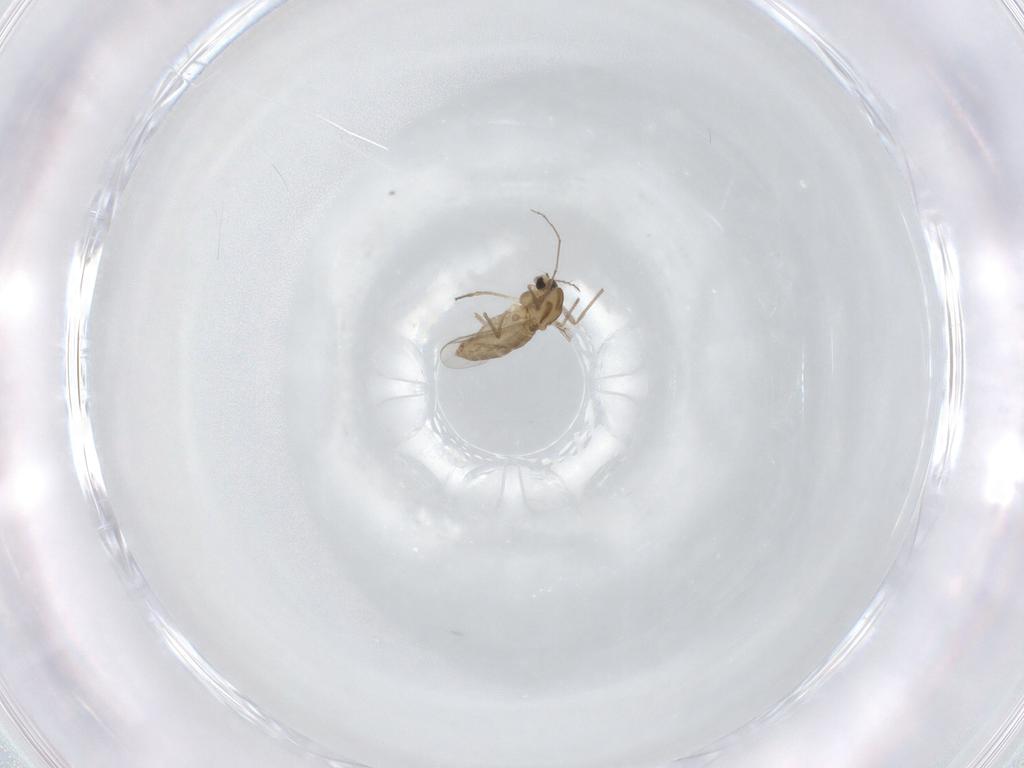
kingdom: Animalia
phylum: Arthropoda
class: Insecta
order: Diptera
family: Chironomidae
